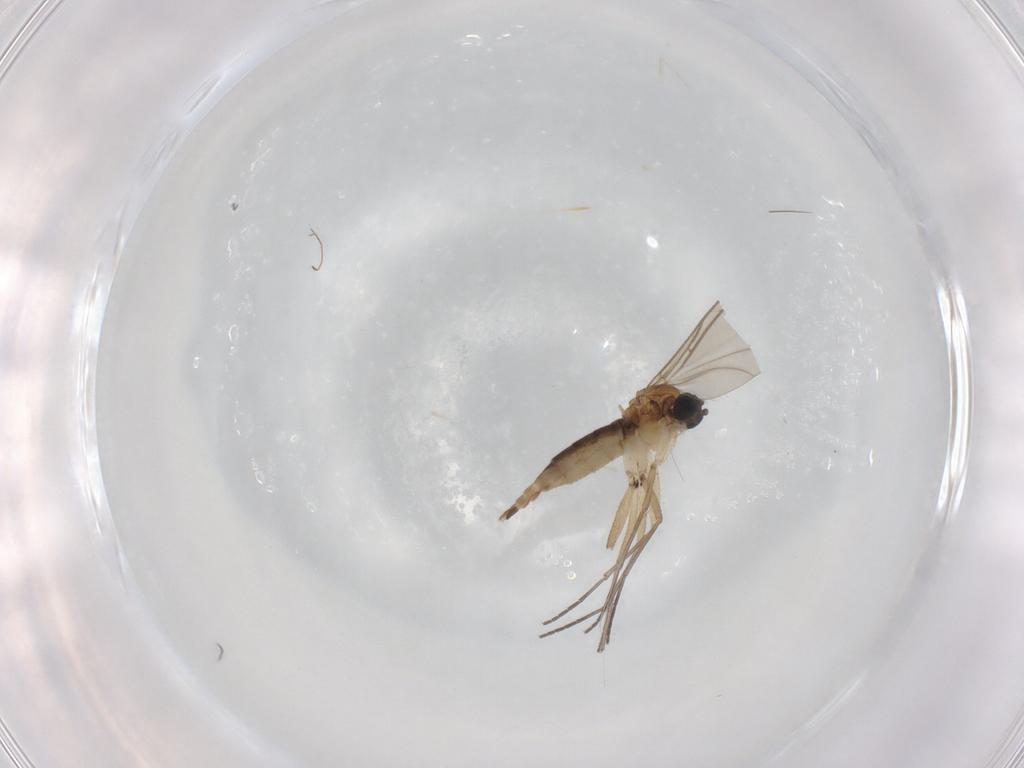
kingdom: Animalia
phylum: Arthropoda
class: Insecta
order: Diptera
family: Sciaridae
